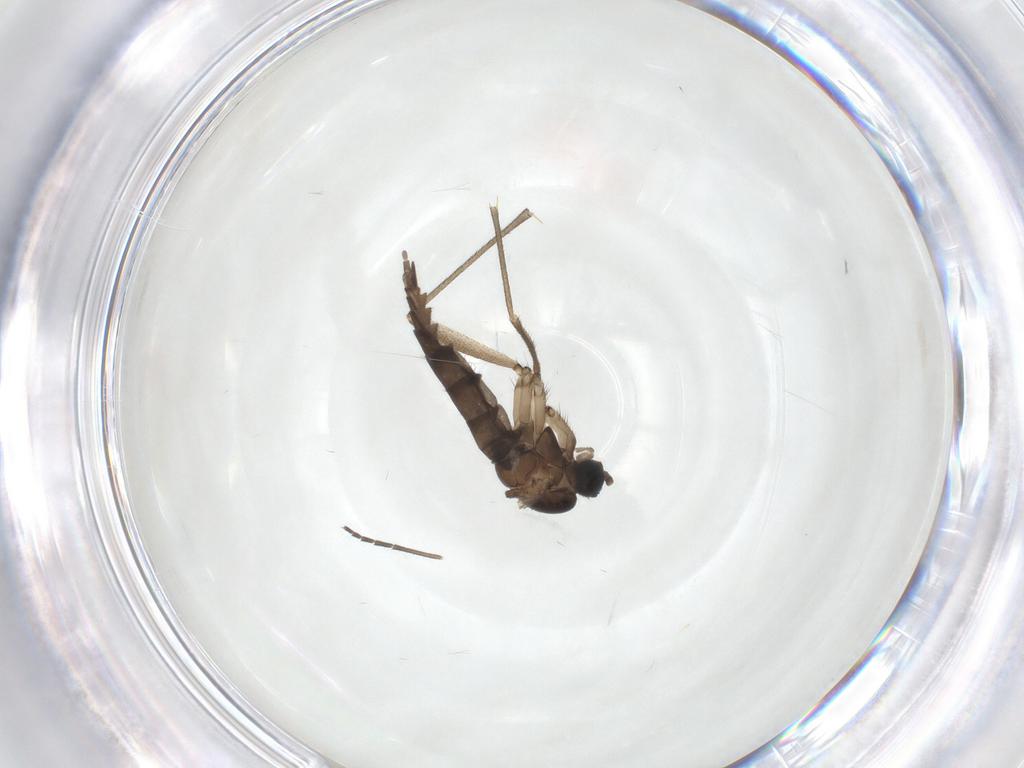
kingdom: Animalia
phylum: Arthropoda
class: Insecta
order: Diptera
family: Sciaridae
